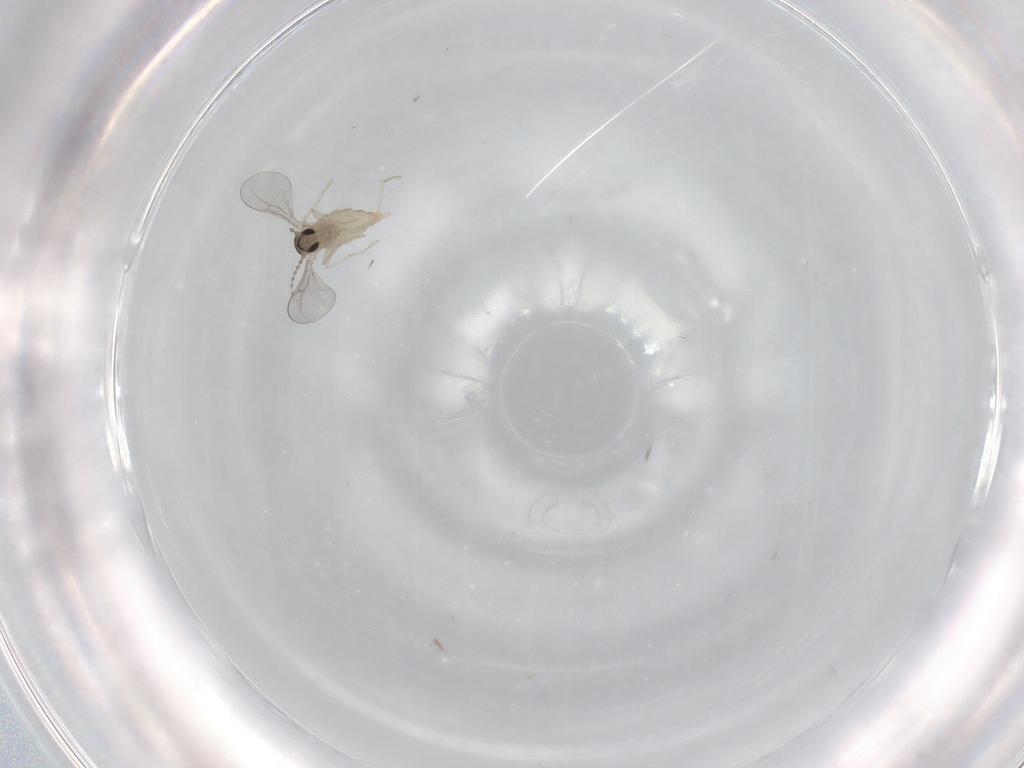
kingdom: Animalia
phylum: Arthropoda
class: Insecta
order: Diptera
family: Cecidomyiidae
